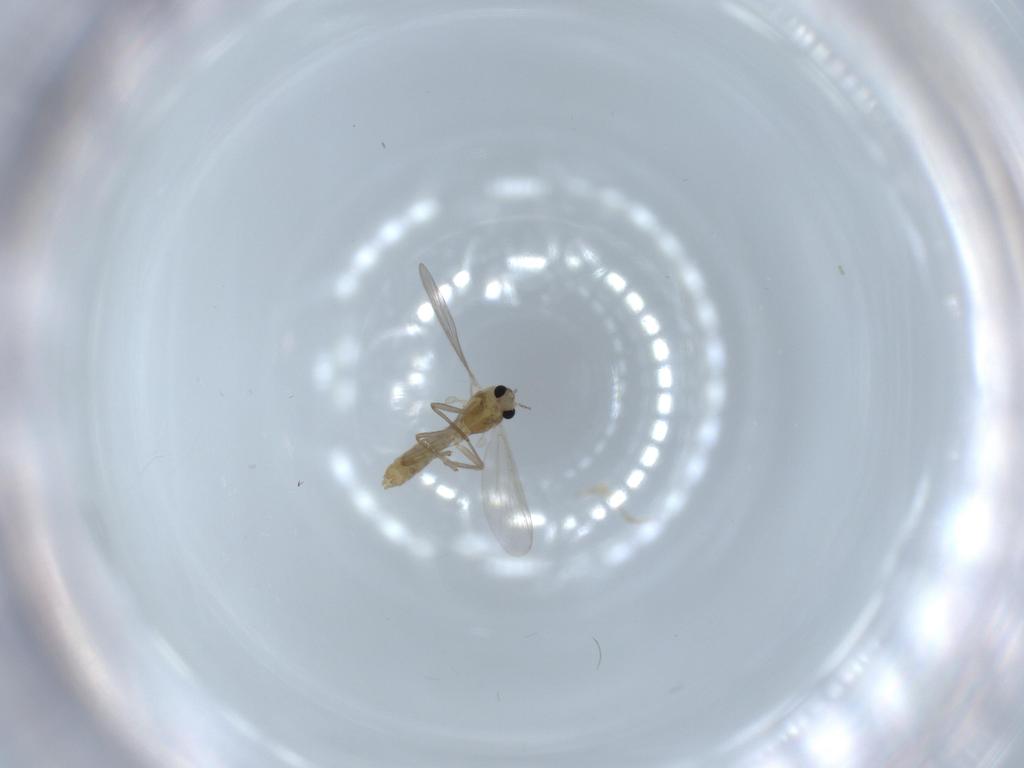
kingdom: Animalia
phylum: Arthropoda
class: Insecta
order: Diptera
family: Chironomidae
